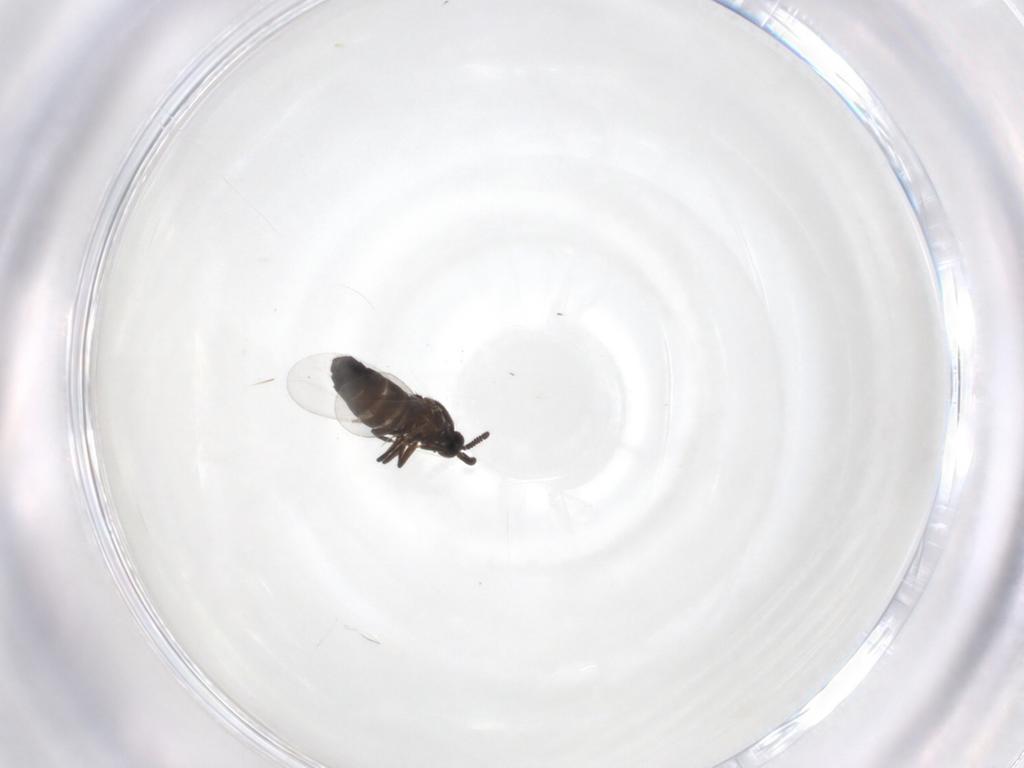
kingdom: Animalia
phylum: Arthropoda
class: Insecta
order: Diptera
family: Scatopsidae
